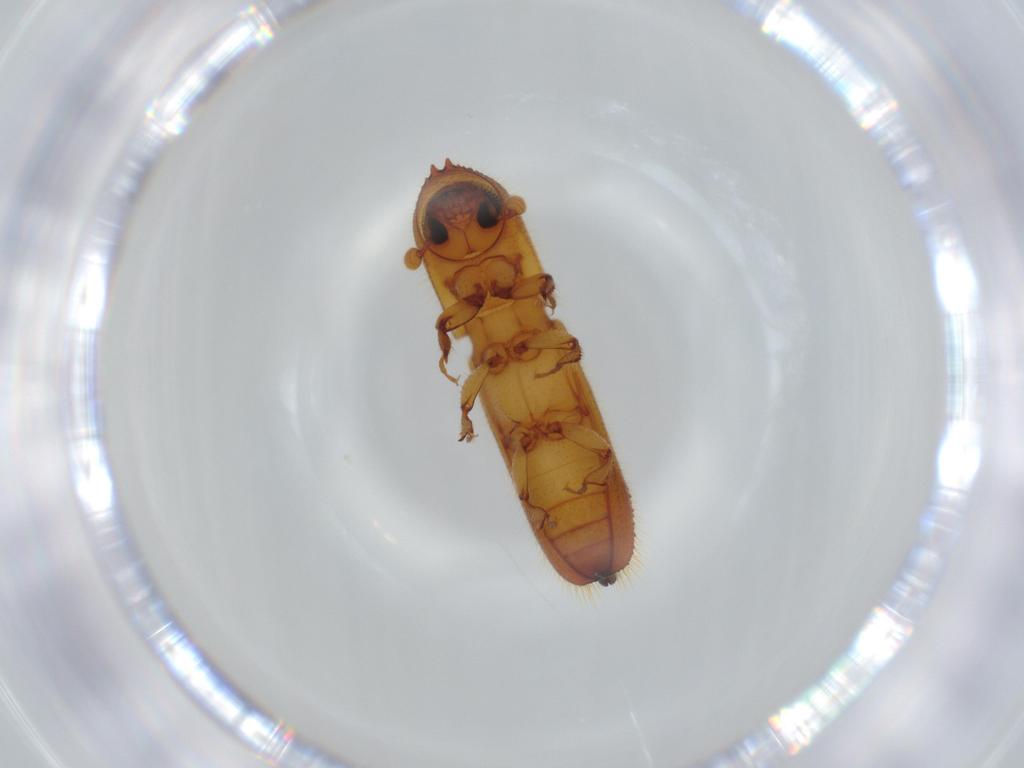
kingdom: Animalia
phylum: Arthropoda
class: Insecta
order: Coleoptera
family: Curculionidae
